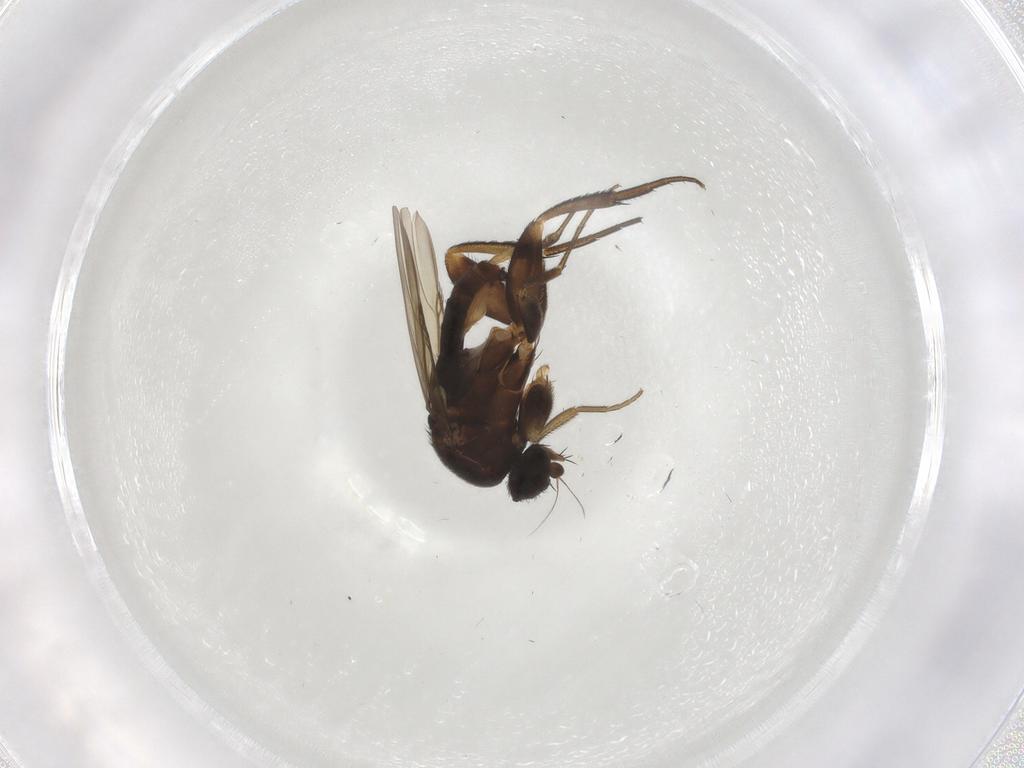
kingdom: Animalia
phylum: Arthropoda
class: Insecta
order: Diptera
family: Phoridae
